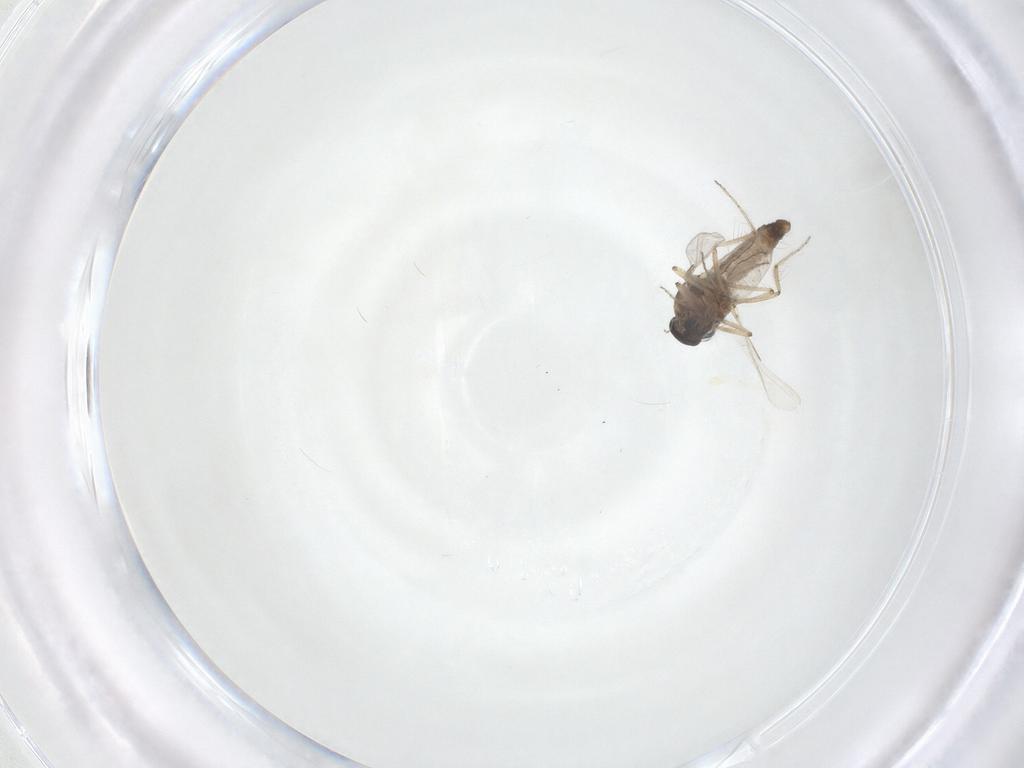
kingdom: Animalia
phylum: Arthropoda
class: Insecta
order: Diptera
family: Ceratopogonidae
